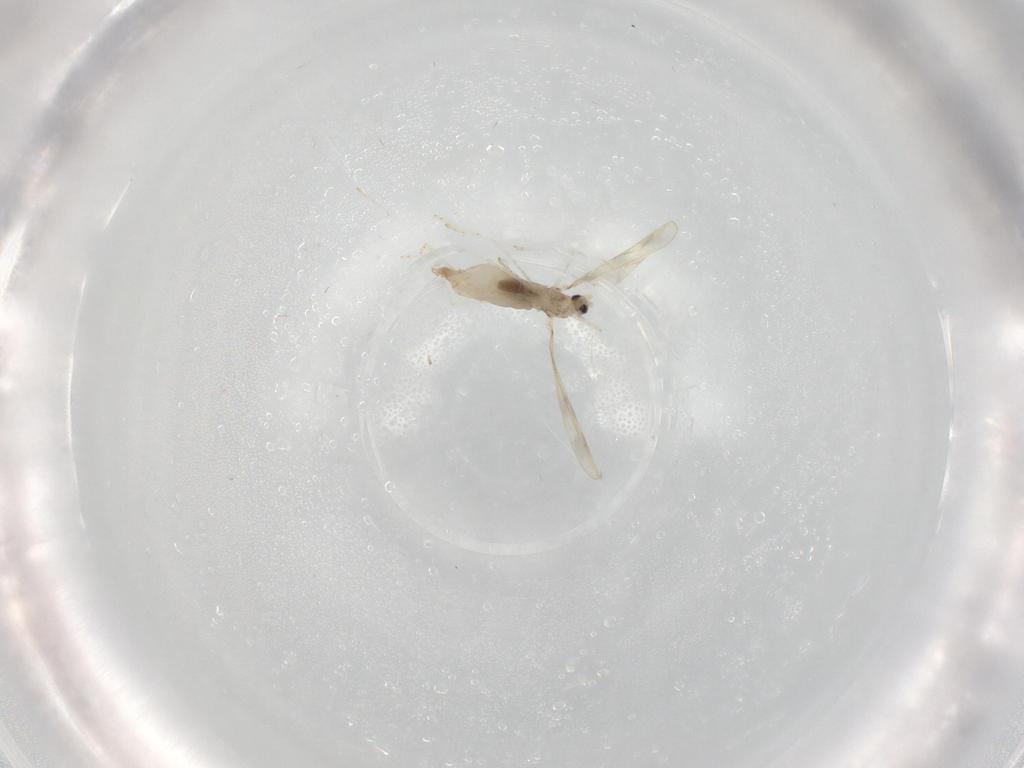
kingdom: Animalia
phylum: Arthropoda
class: Insecta
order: Diptera
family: Cecidomyiidae
